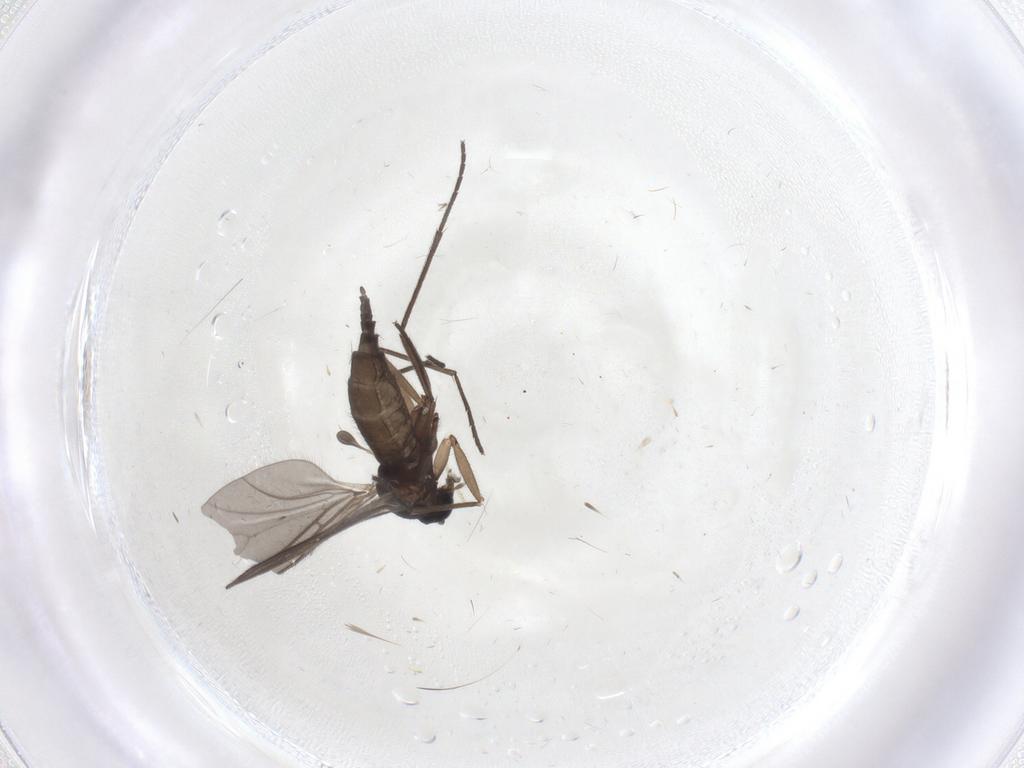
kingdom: Animalia
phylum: Arthropoda
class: Insecta
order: Diptera
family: Sciaridae
